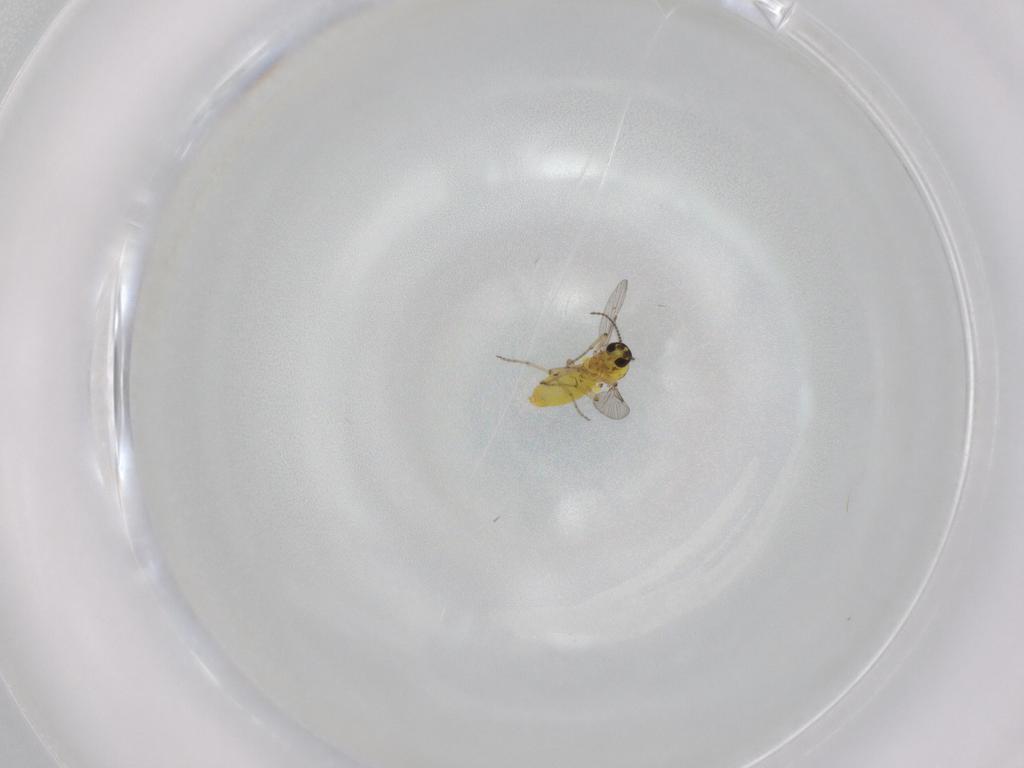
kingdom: Animalia
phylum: Arthropoda
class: Insecta
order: Diptera
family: Ceratopogonidae
